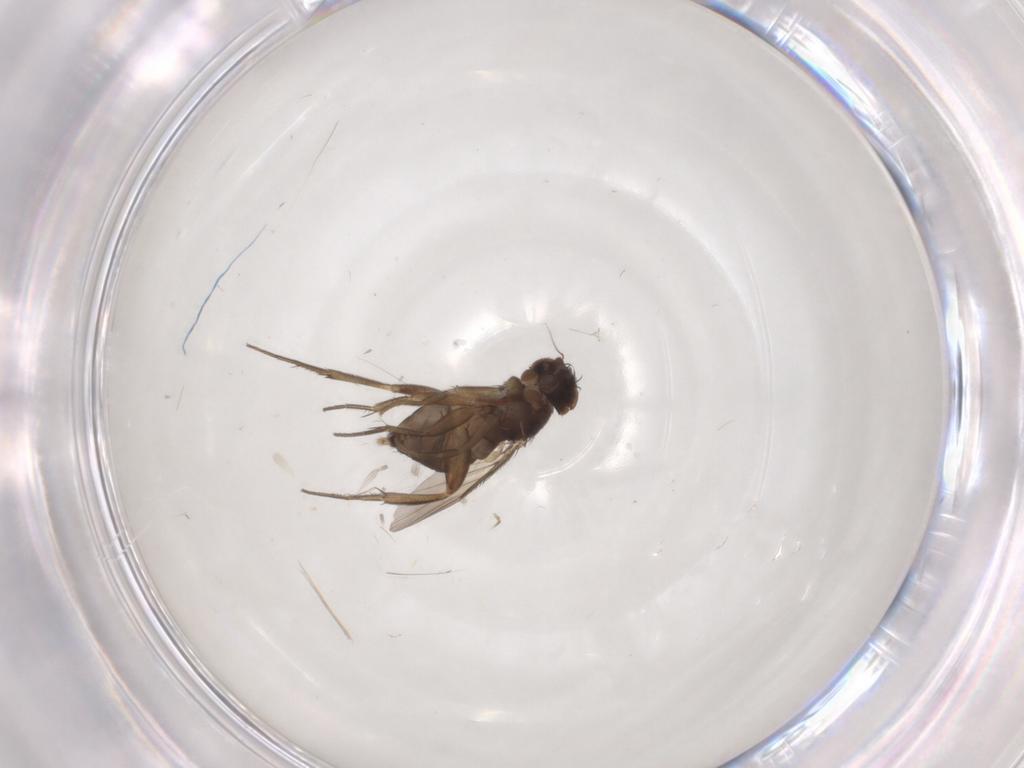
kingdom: Animalia
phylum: Arthropoda
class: Insecta
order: Diptera
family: Phoridae
